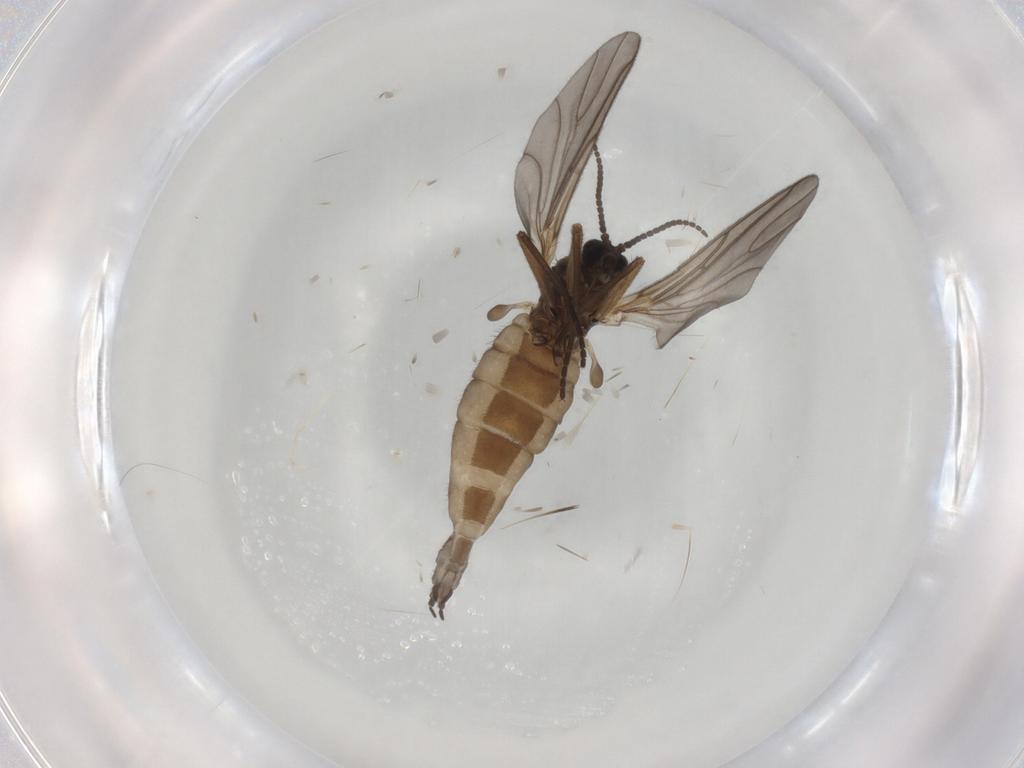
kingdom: Animalia
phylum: Arthropoda
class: Insecta
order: Diptera
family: Sciaridae
